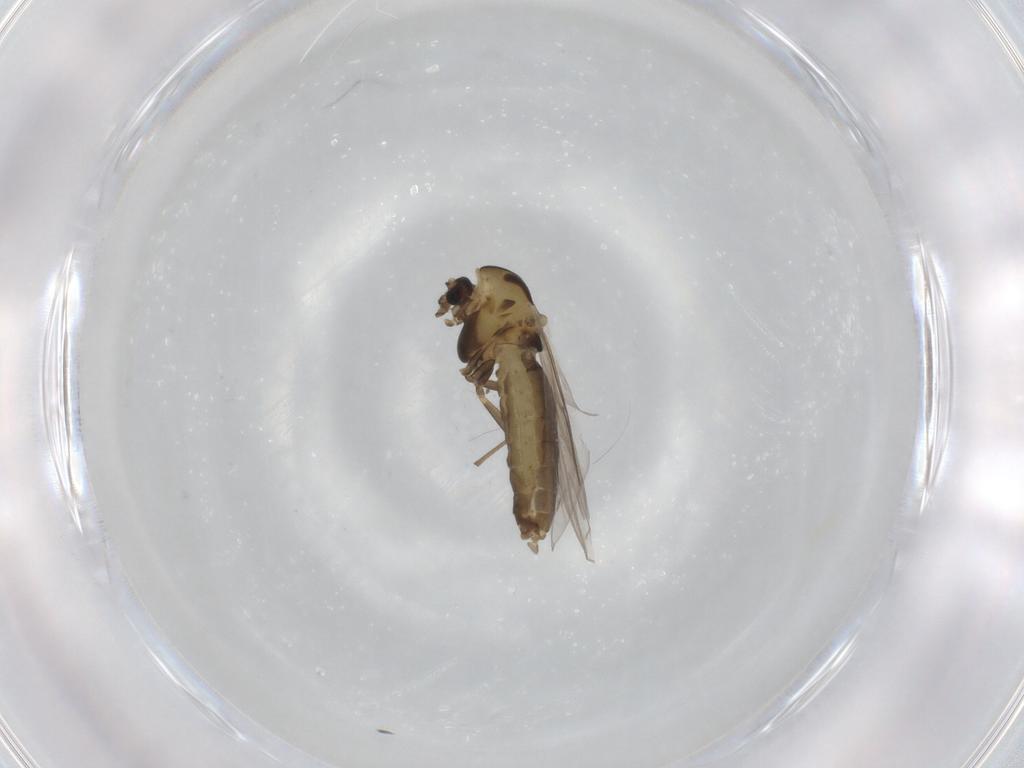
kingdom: Animalia
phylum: Arthropoda
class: Insecta
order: Diptera
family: Chironomidae
